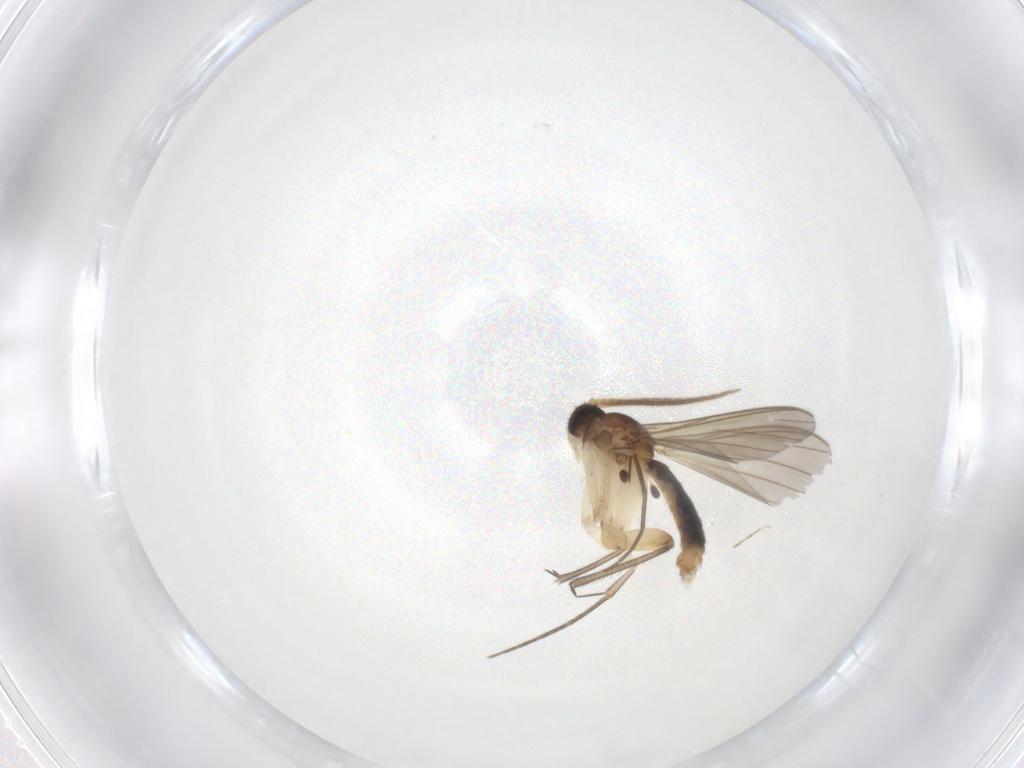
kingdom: Animalia
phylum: Arthropoda
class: Insecta
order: Diptera
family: Mycetophilidae
